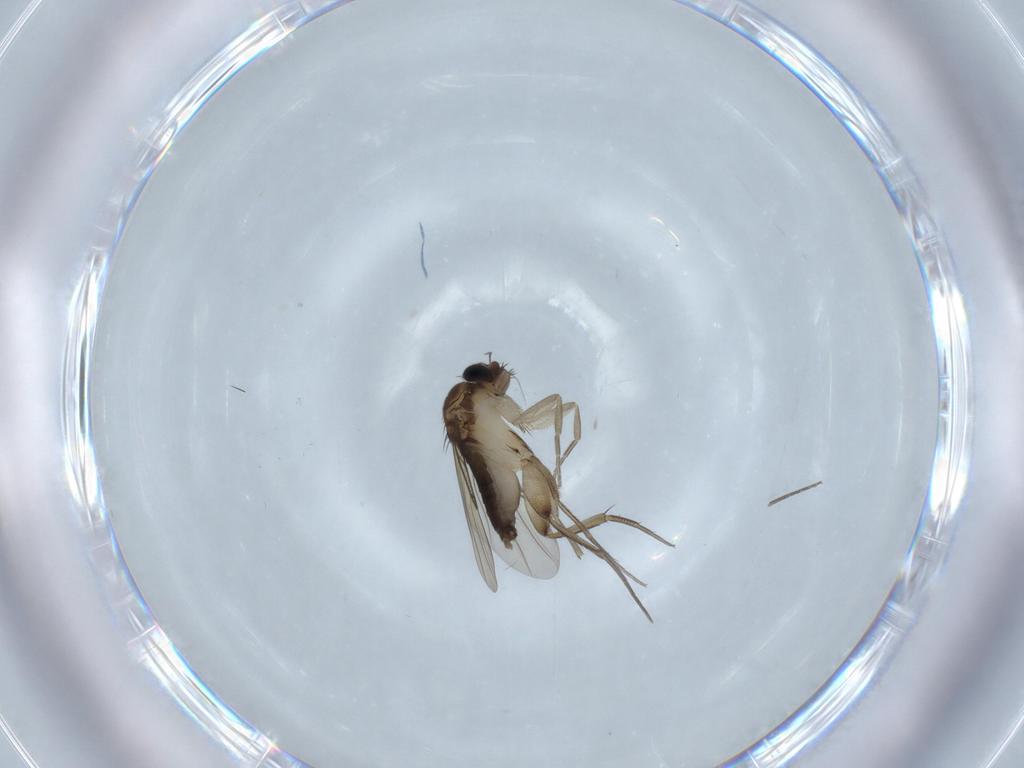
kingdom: Animalia
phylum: Arthropoda
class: Insecta
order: Diptera
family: Phoridae
